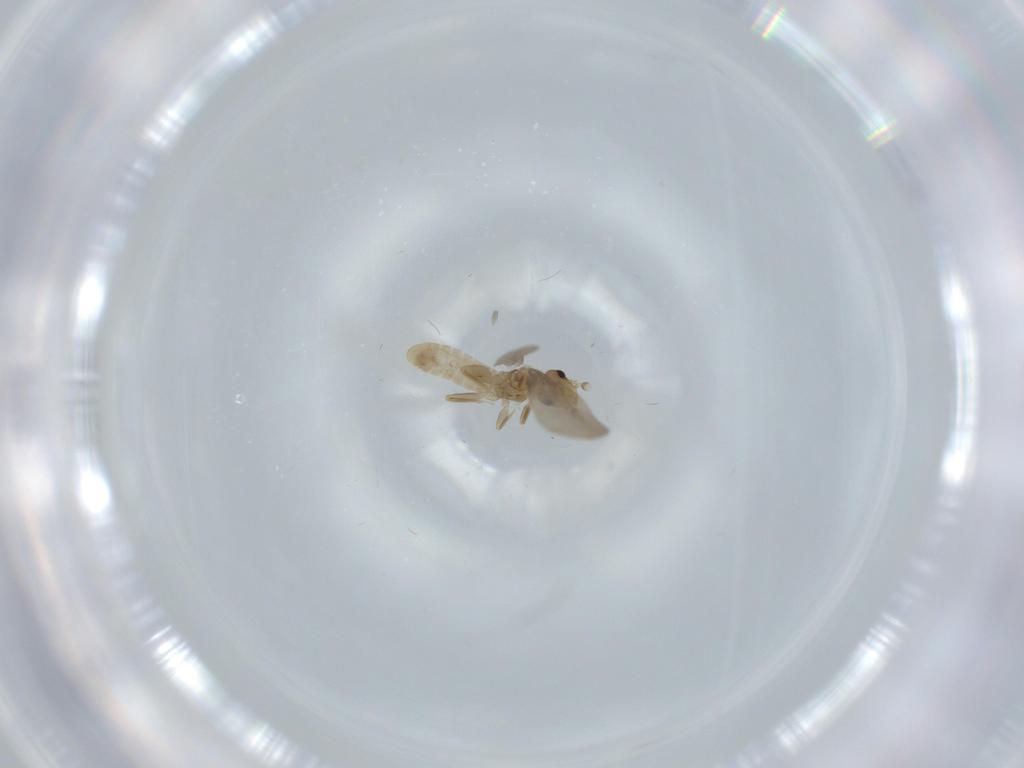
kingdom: Animalia
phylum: Arthropoda
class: Insecta
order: Psocodea
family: Liposcelididae
